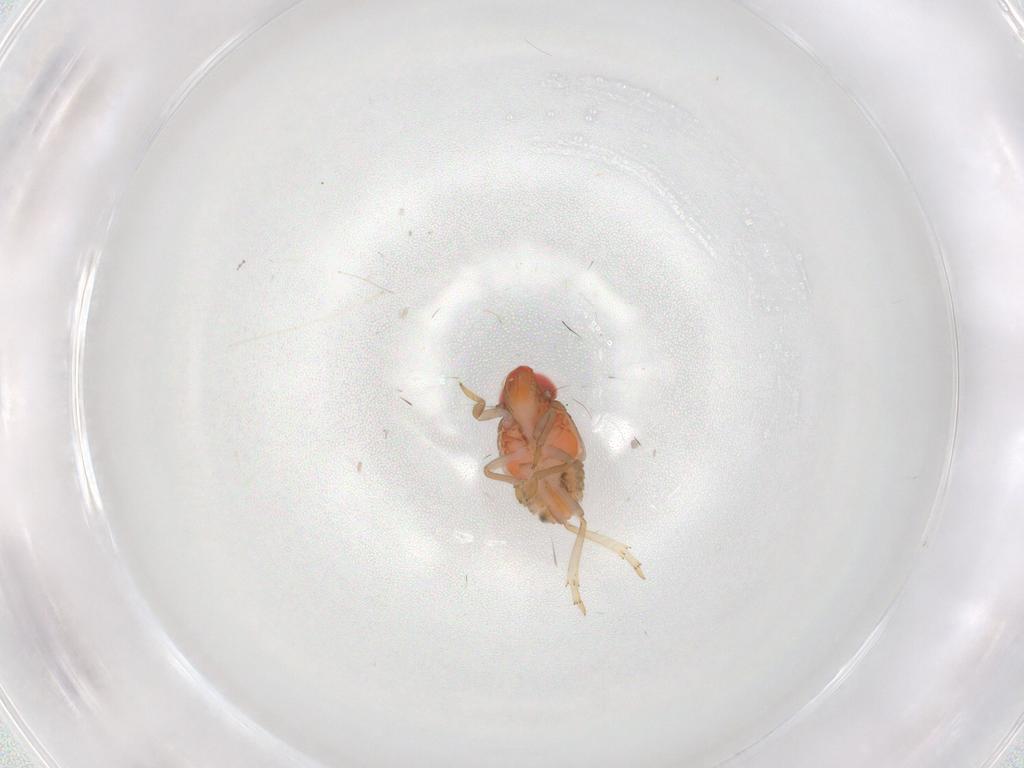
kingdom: Animalia
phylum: Arthropoda
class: Insecta
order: Hemiptera
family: Issidae
